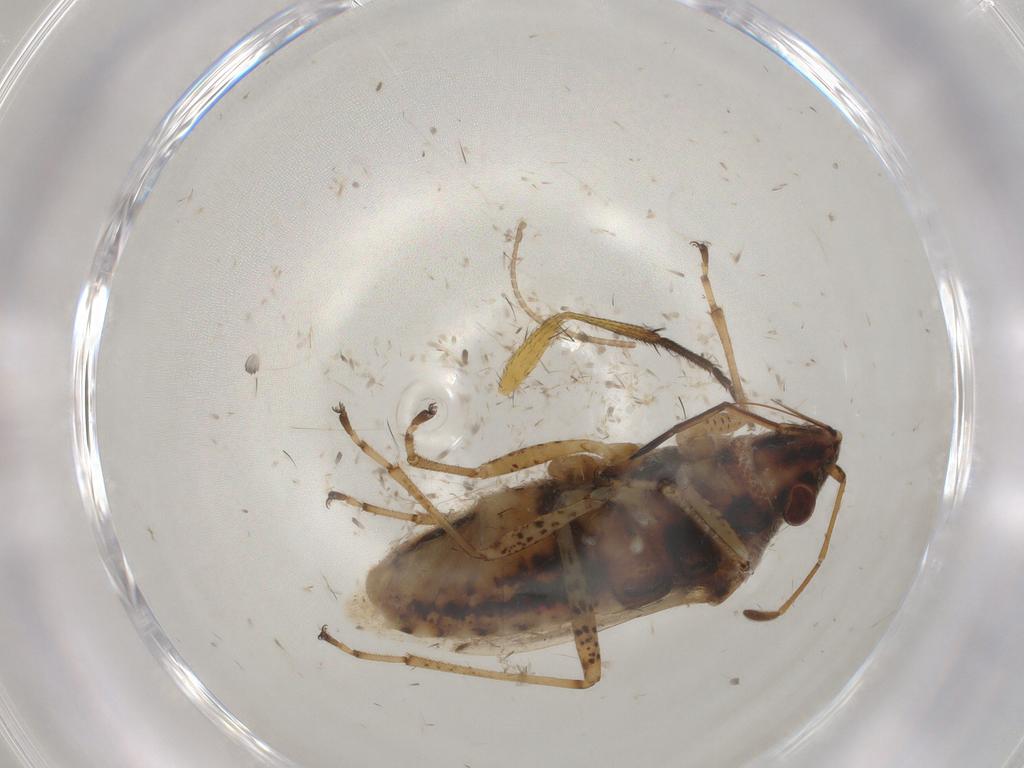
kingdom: Animalia
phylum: Arthropoda
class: Insecta
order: Hemiptera
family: Lygaeidae
